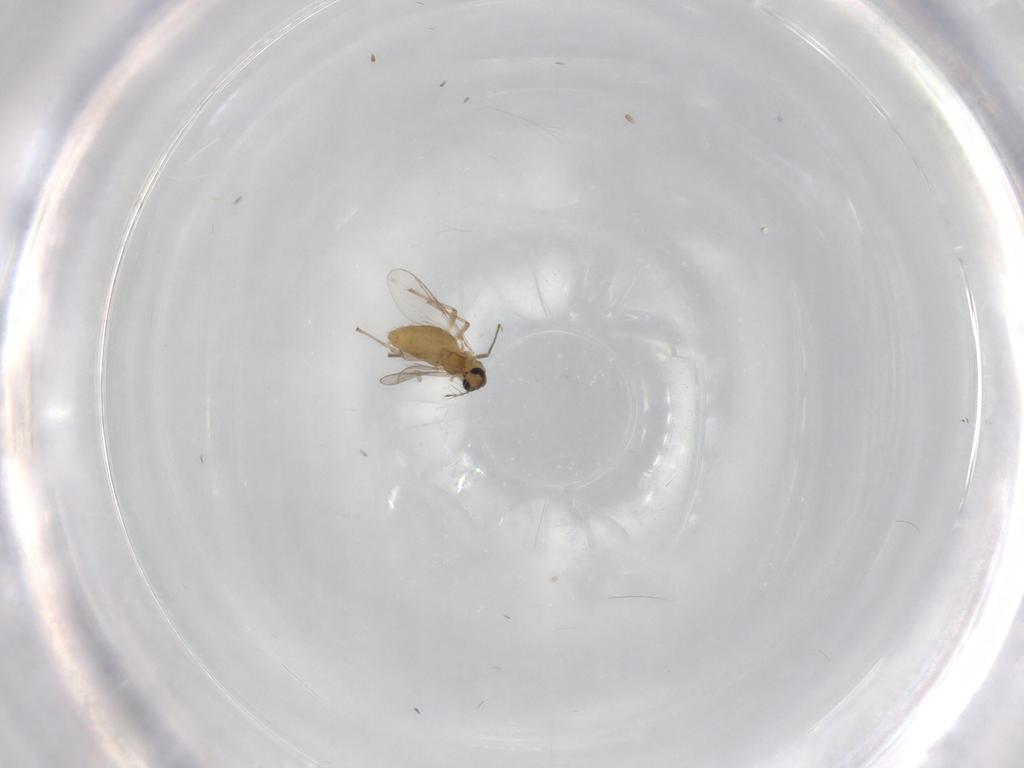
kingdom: Animalia
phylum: Arthropoda
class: Insecta
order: Diptera
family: Chironomidae
